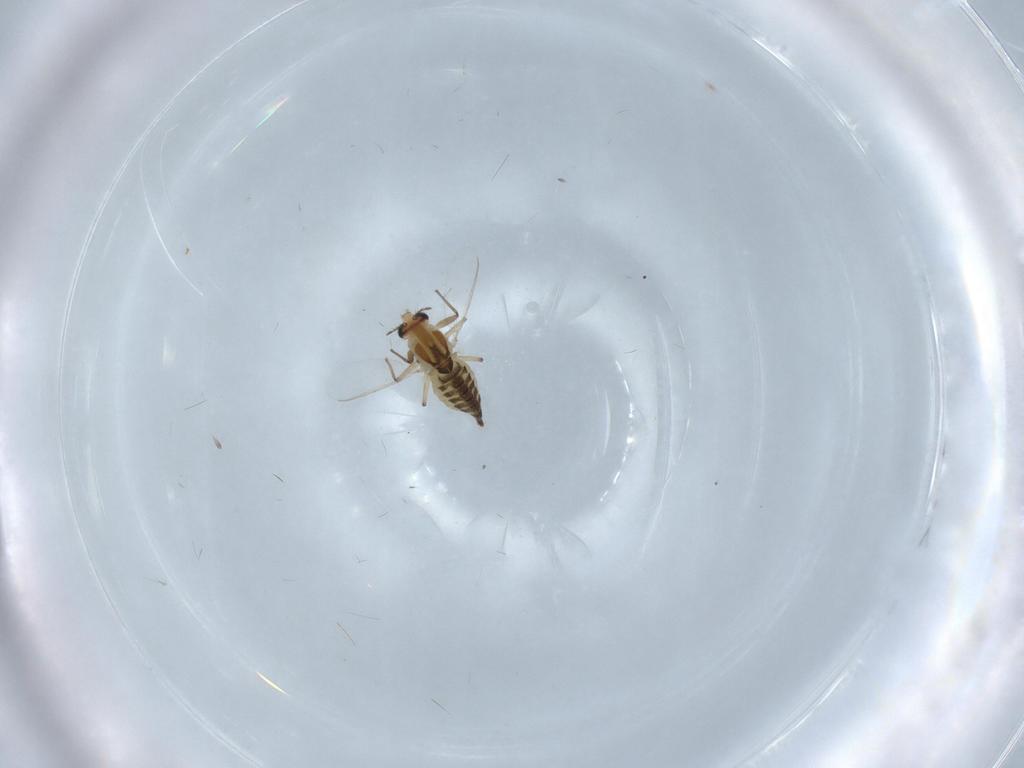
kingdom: Animalia
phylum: Arthropoda
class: Insecta
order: Diptera
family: Chironomidae
